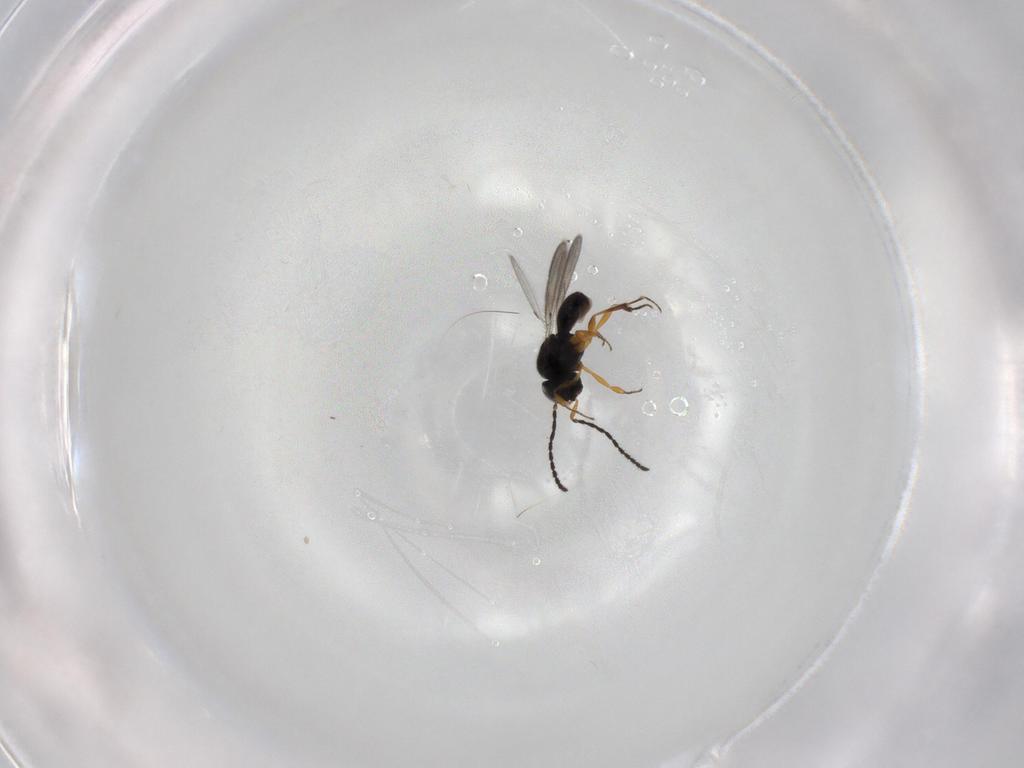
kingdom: Animalia
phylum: Arthropoda
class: Insecta
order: Hymenoptera
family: Scelionidae
